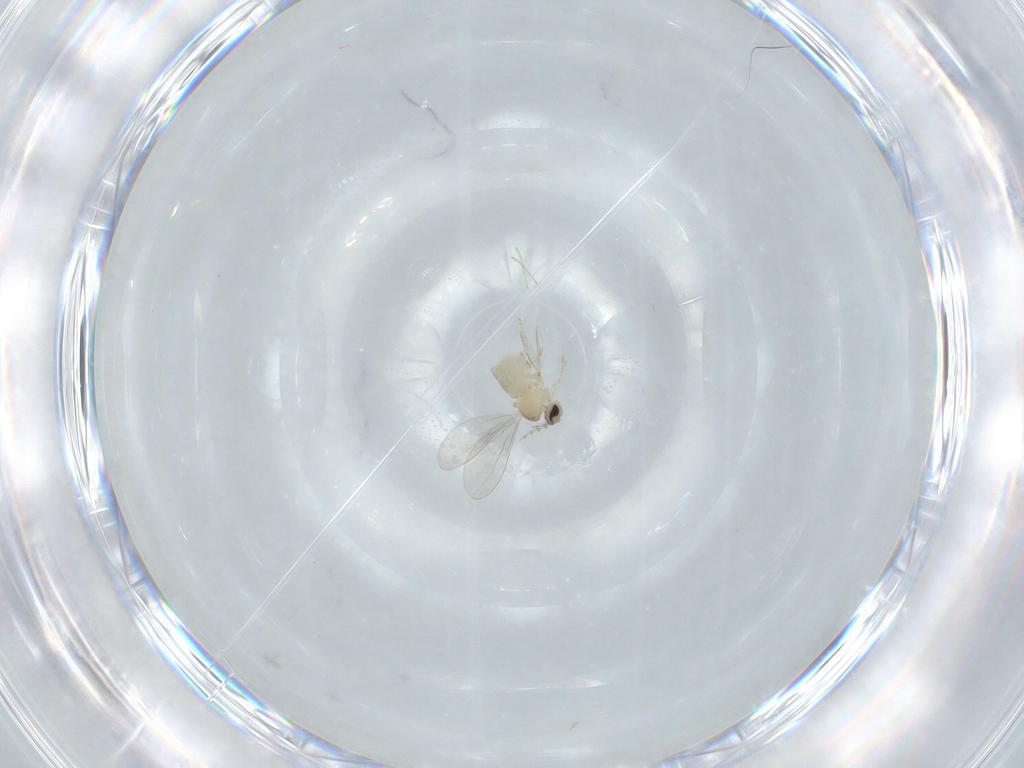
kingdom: Animalia
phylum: Arthropoda
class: Insecta
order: Diptera
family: Cecidomyiidae
